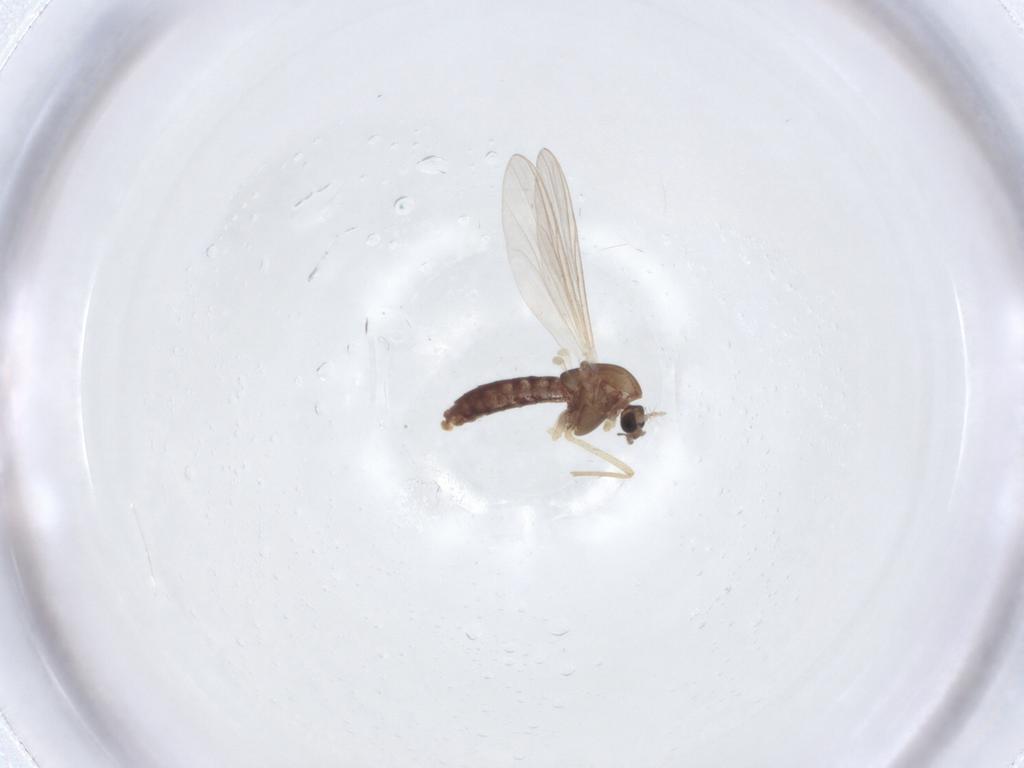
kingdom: Animalia
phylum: Arthropoda
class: Insecta
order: Diptera
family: Chironomidae
